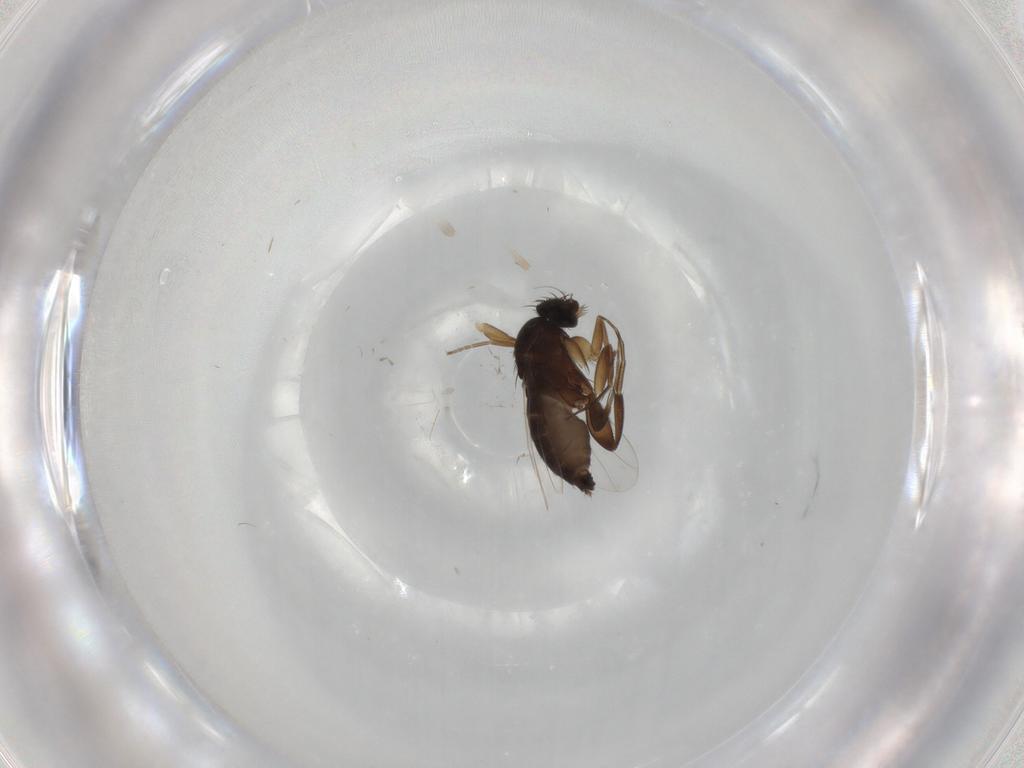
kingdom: Animalia
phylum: Arthropoda
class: Insecta
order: Diptera
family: Phoridae
